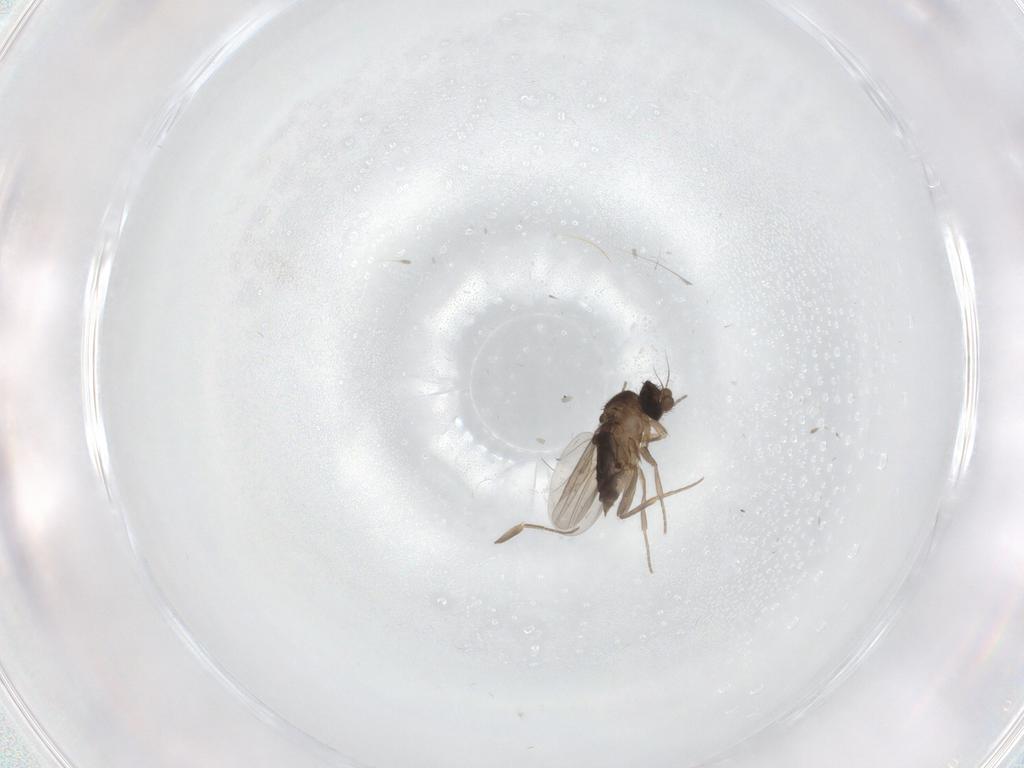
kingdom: Animalia
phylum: Arthropoda
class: Insecta
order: Diptera
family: Phoridae
